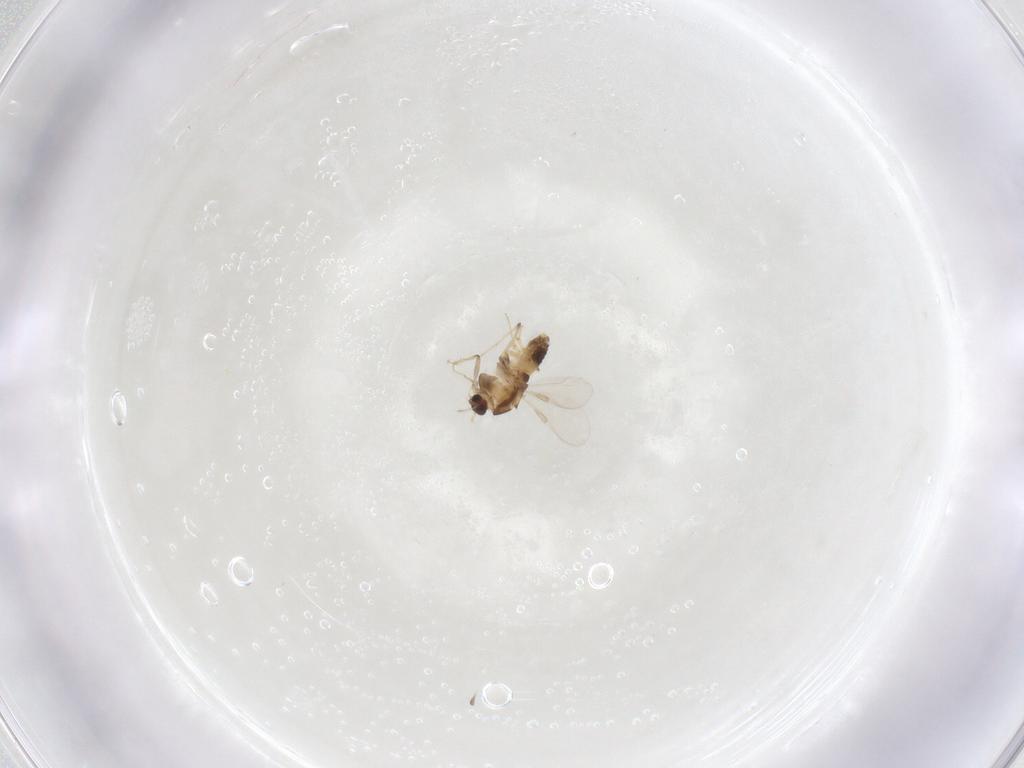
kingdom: Animalia
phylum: Arthropoda
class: Insecta
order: Diptera
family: Chironomidae
